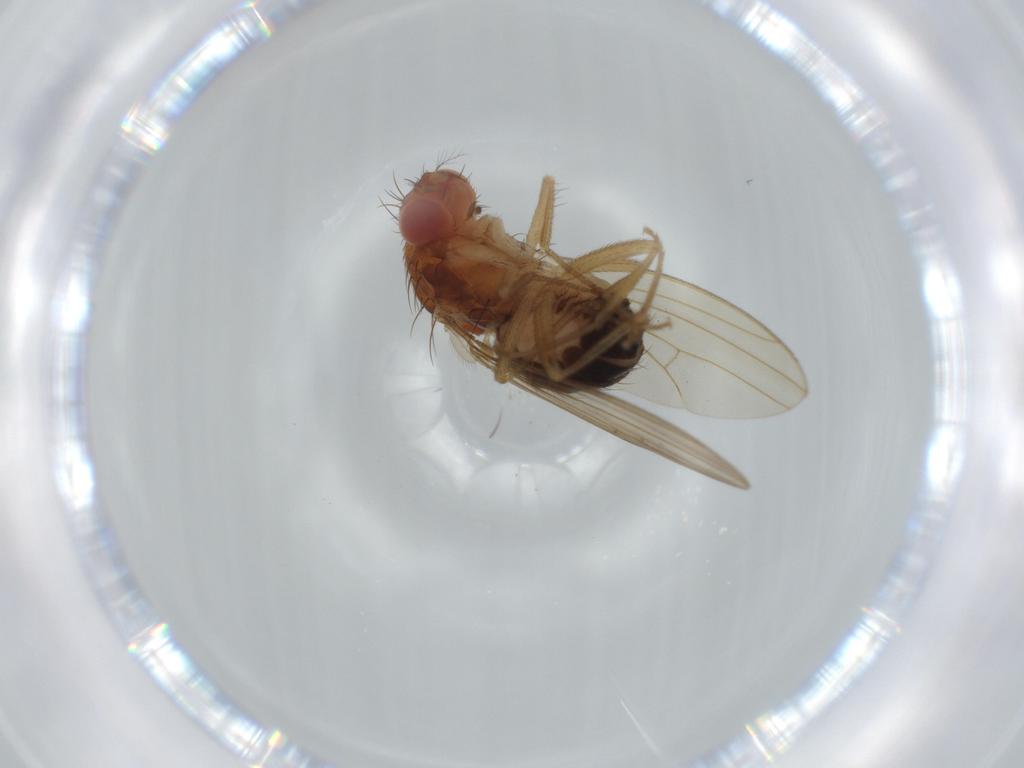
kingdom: Animalia
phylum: Arthropoda
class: Insecta
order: Diptera
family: Drosophilidae
